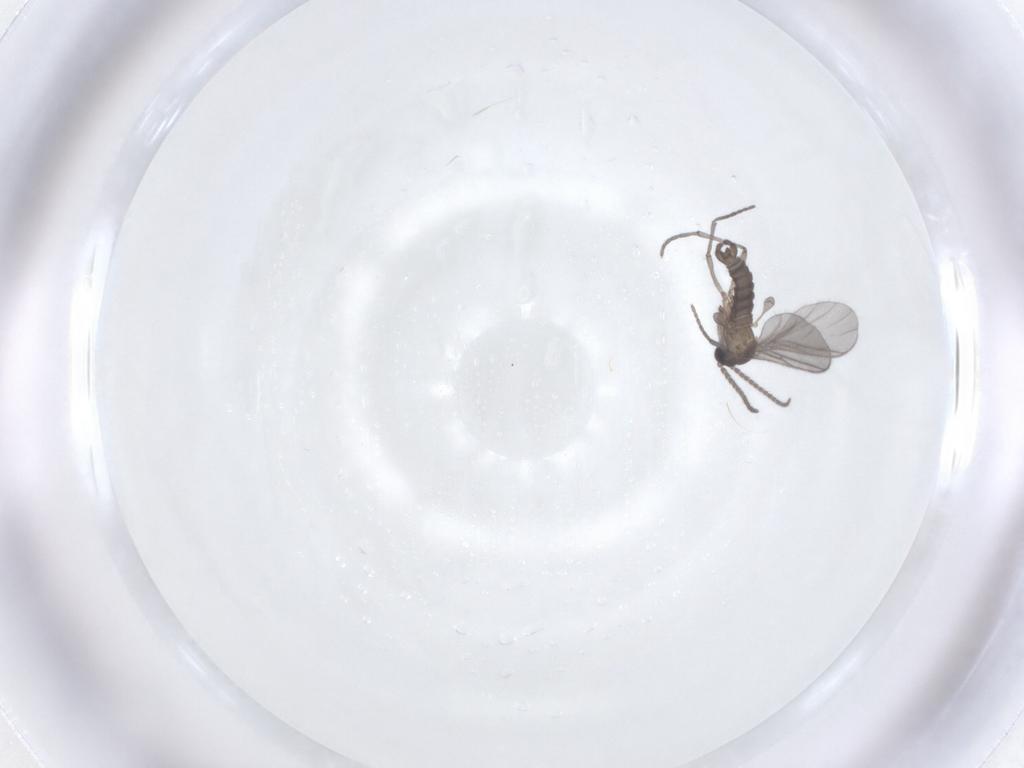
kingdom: Animalia
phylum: Arthropoda
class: Insecta
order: Diptera
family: Sciaridae
